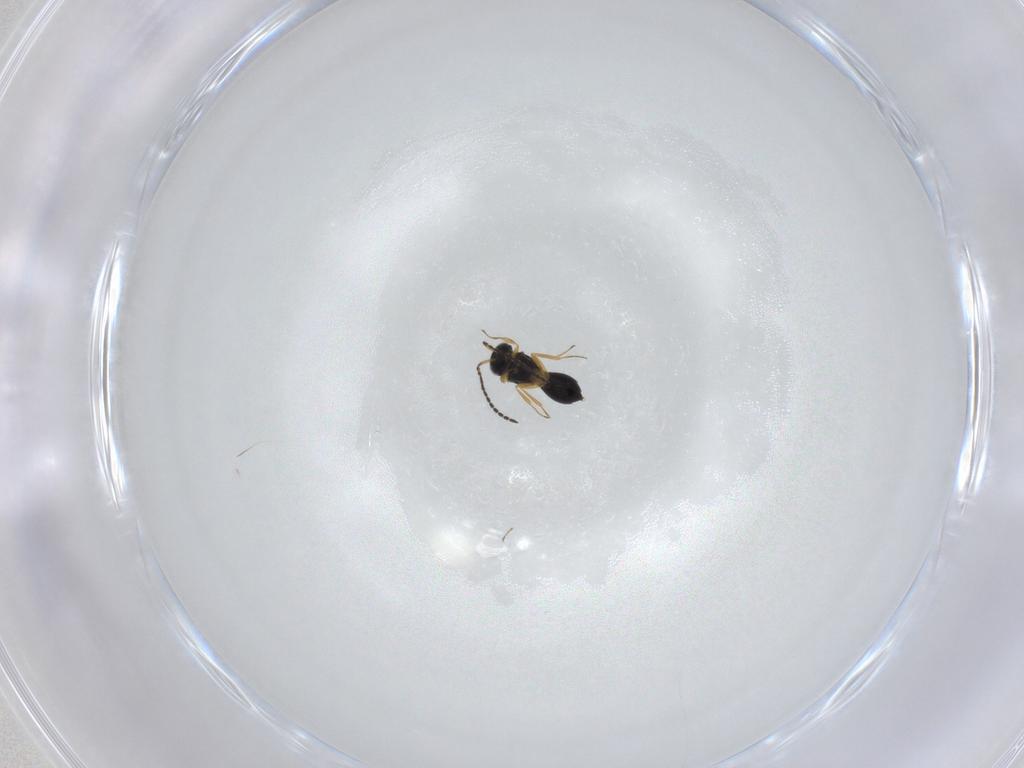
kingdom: Animalia
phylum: Arthropoda
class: Insecta
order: Hymenoptera
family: Scelionidae
